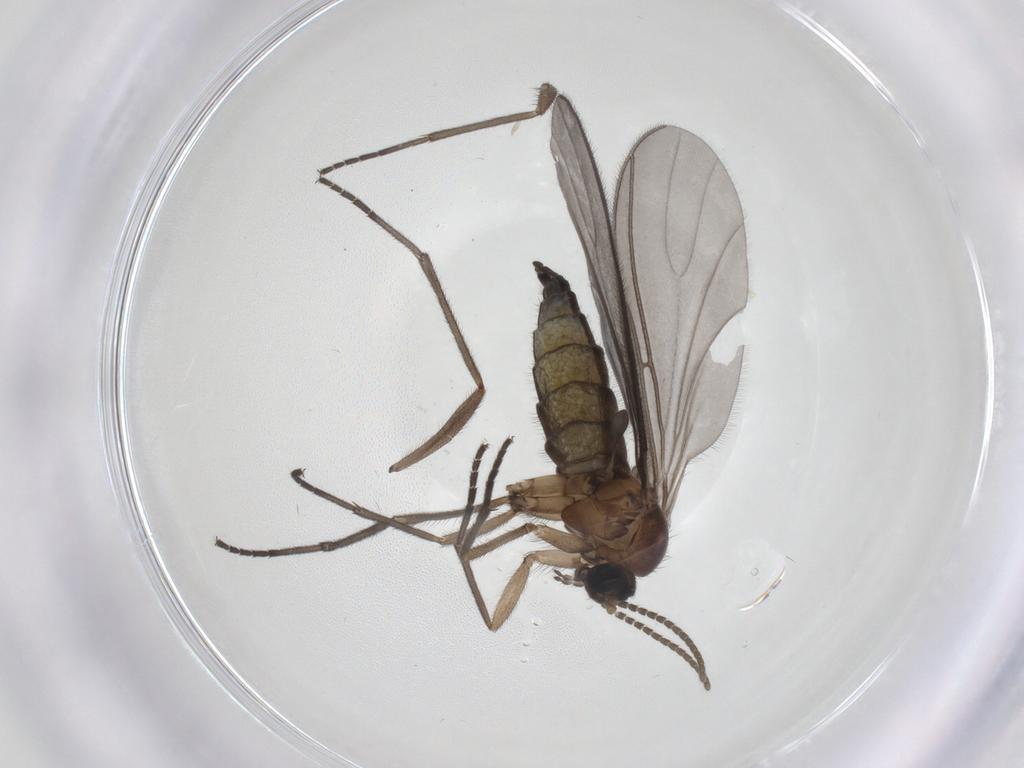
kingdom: Animalia
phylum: Arthropoda
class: Insecta
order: Diptera
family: Sciaridae
